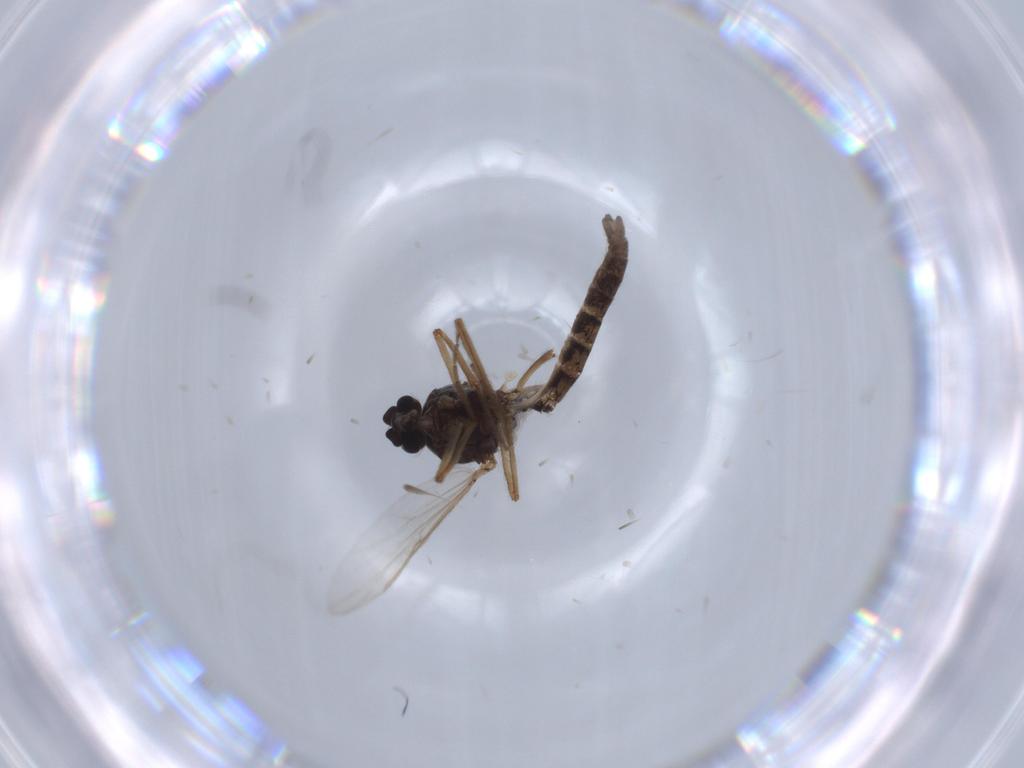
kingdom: Animalia
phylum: Arthropoda
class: Insecta
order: Diptera
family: Ceratopogonidae
